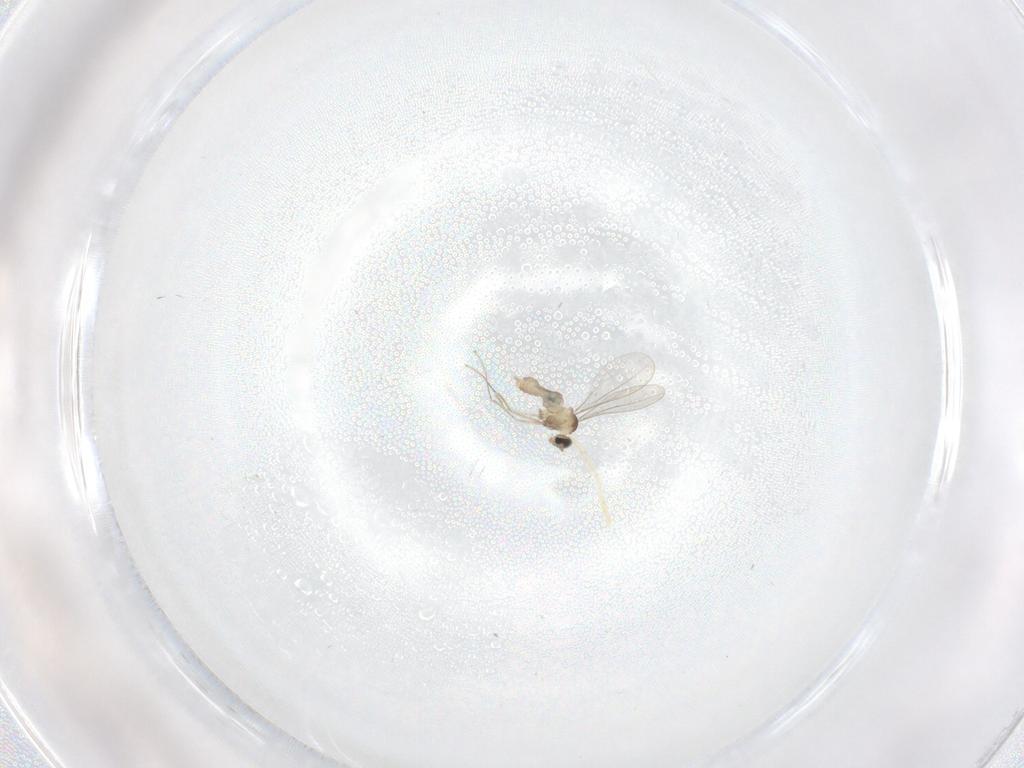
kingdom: Animalia
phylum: Arthropoda
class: Insecta
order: Diptera
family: Cecidomyiidae
